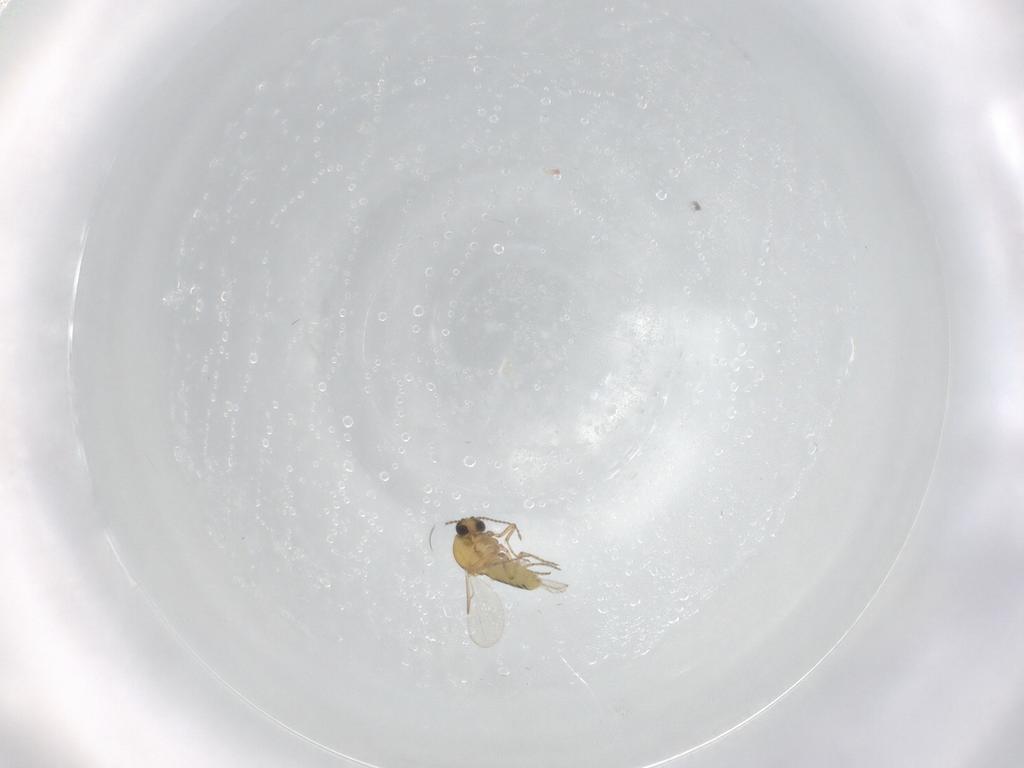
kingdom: Animalia
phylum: Arthropoda
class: Insecta
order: Diptera
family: Ceratopogonidae
